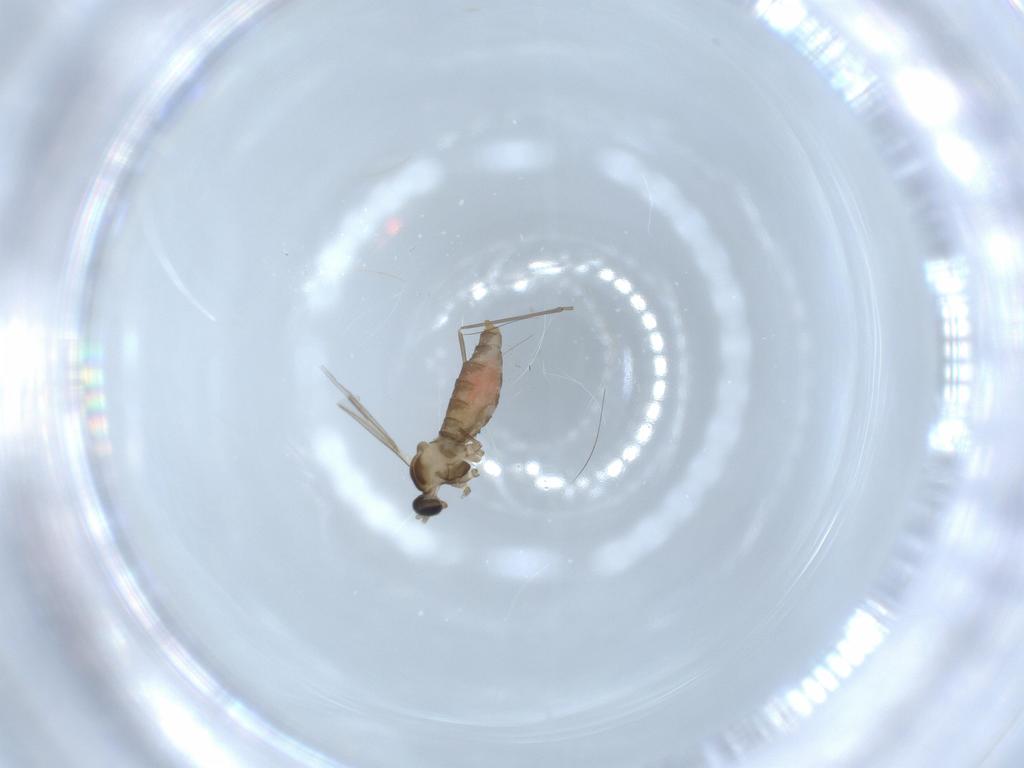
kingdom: Animalia
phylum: Arthropoda
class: Insecta
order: Diptera
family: Cecidomyiidae
